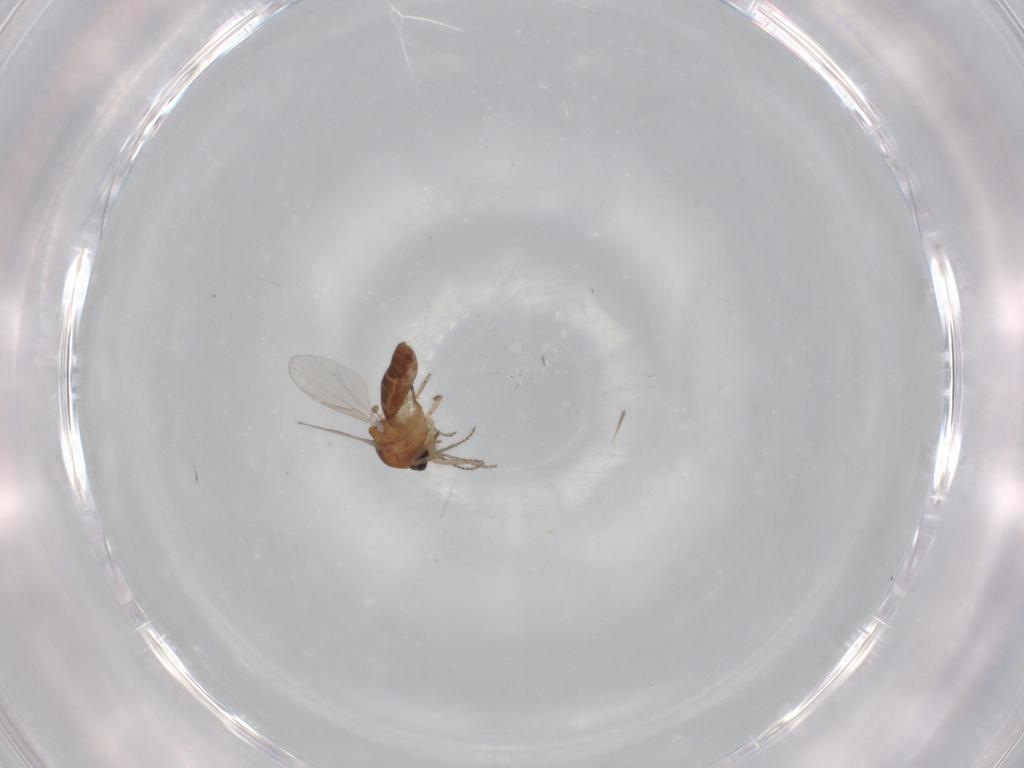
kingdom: Animalia
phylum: Arthropoda
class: Insecta
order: Diptera
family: Ceratopogonidae
